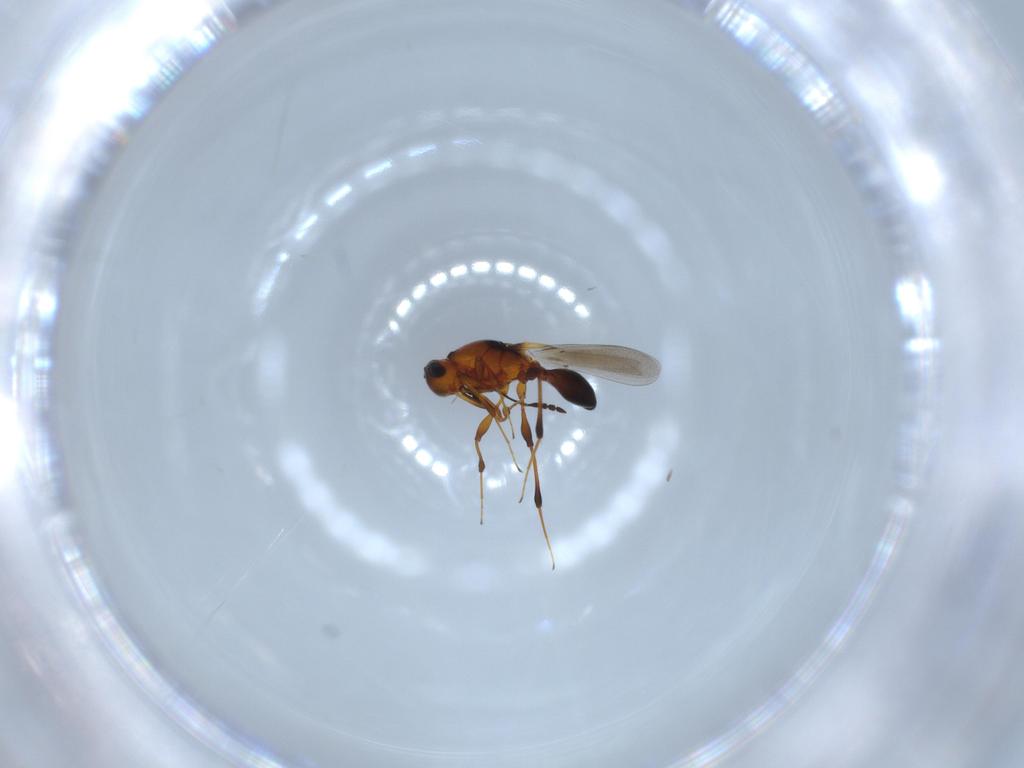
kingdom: Animalia
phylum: Arthropoda
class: Insecta
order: Hymenoptera
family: Platygastridae
